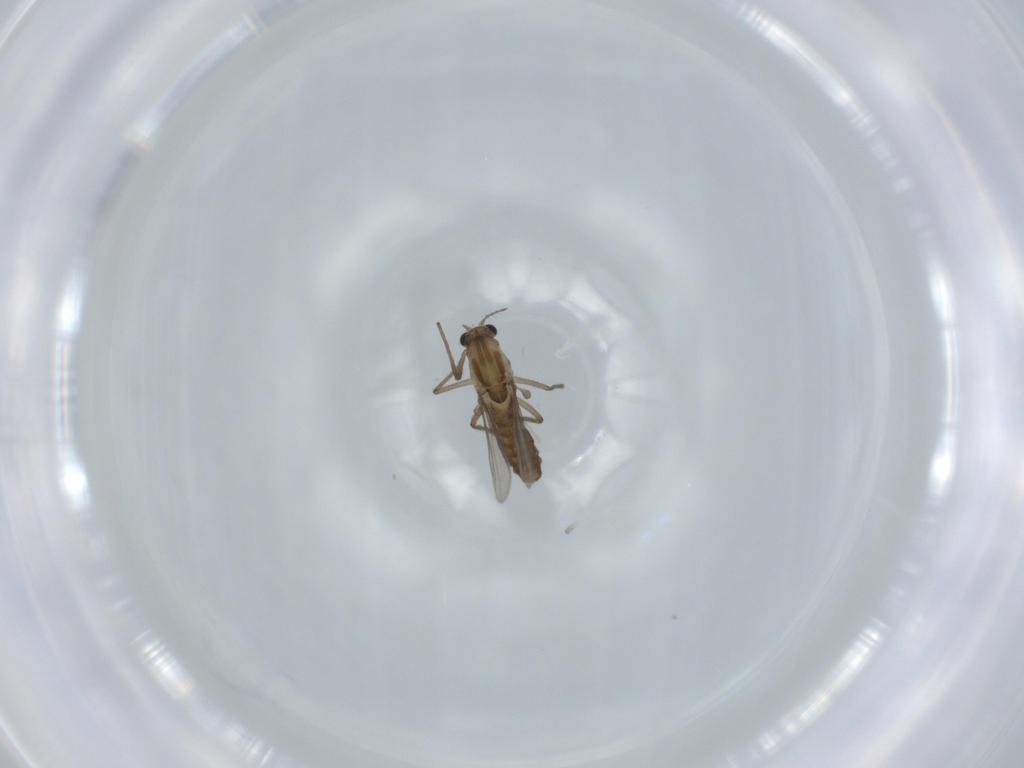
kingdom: Animalia
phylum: Arthropoda
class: Insecta
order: Diptera
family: Chironomidae
